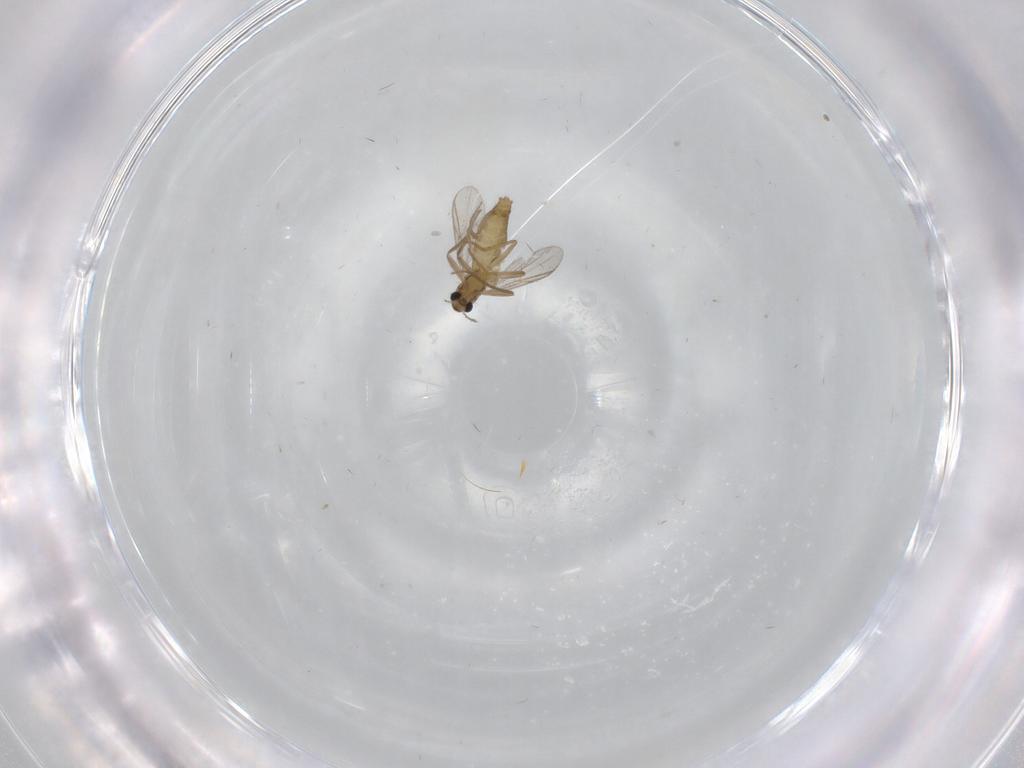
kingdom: Animalia
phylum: Arthropoda
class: Insecta
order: Diptera
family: Chironomidae
